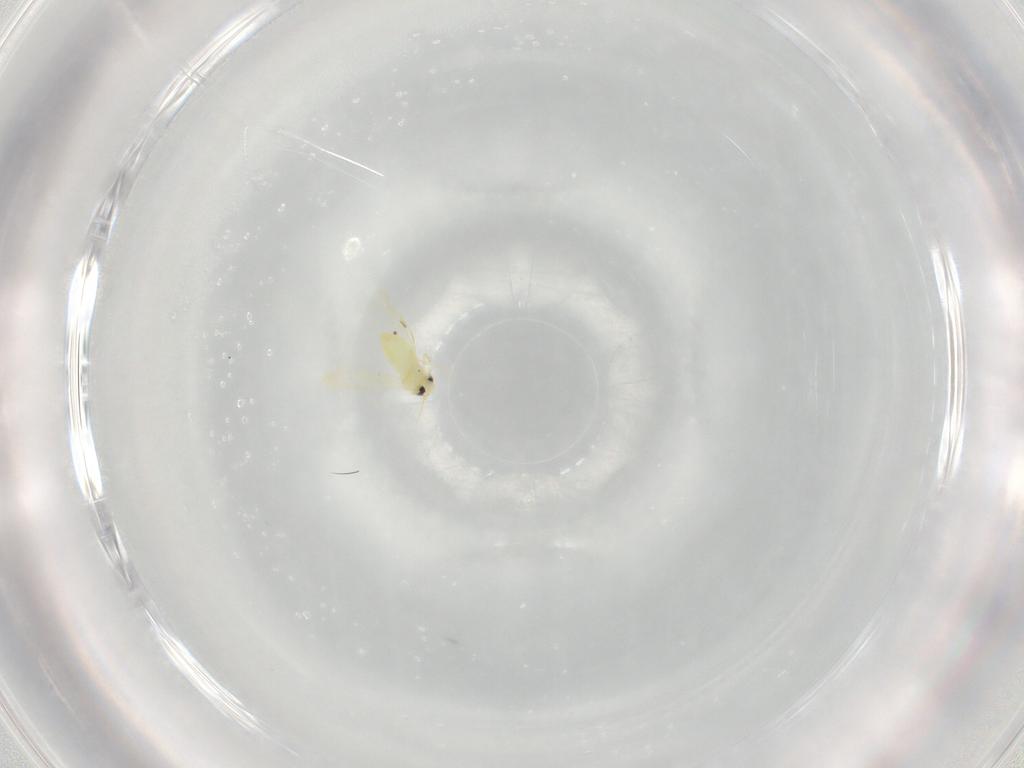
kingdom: Animalia
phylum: Arthropoda
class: Insecta
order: Hemiptera
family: Aleyrodidae
